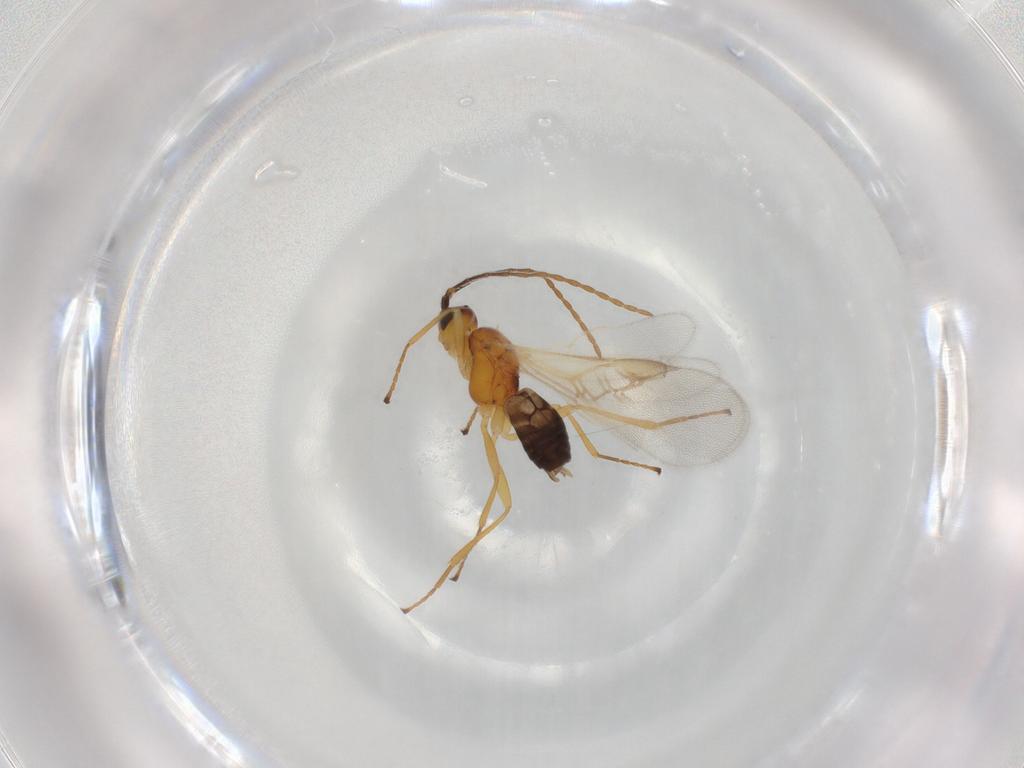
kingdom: Animalia
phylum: Arthropoda
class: Insecta
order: Hymenoptera
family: Braconidae
